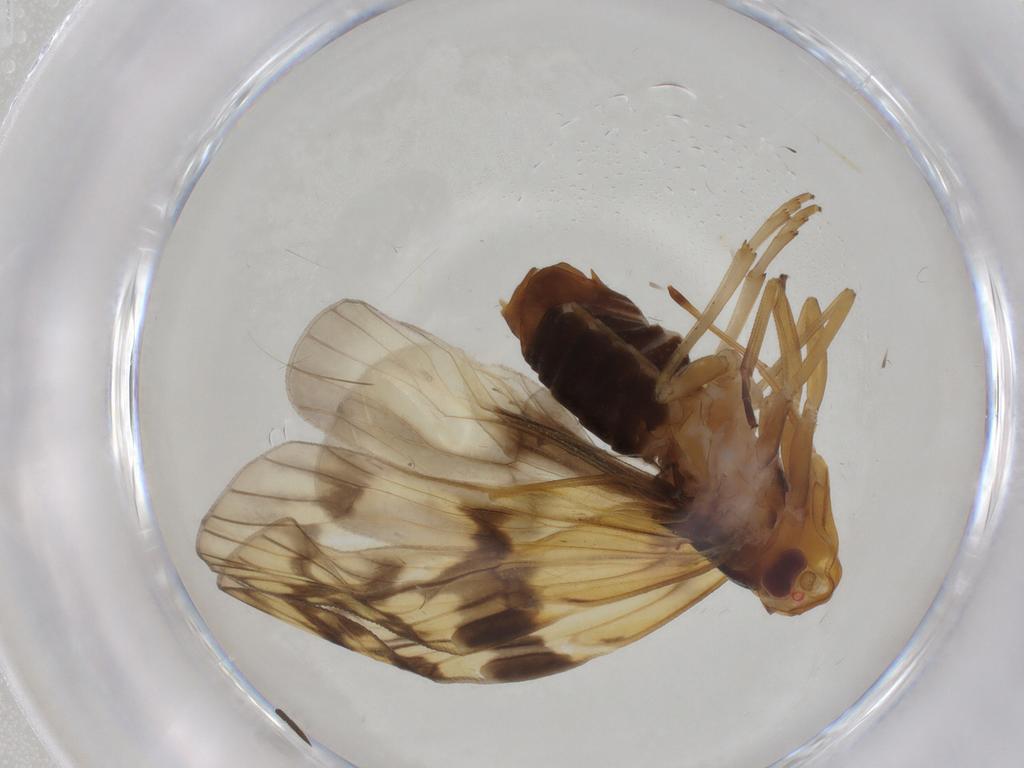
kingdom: Animalia
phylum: Arthropoda
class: Insecta
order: Hemiptera
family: Cixiidae
